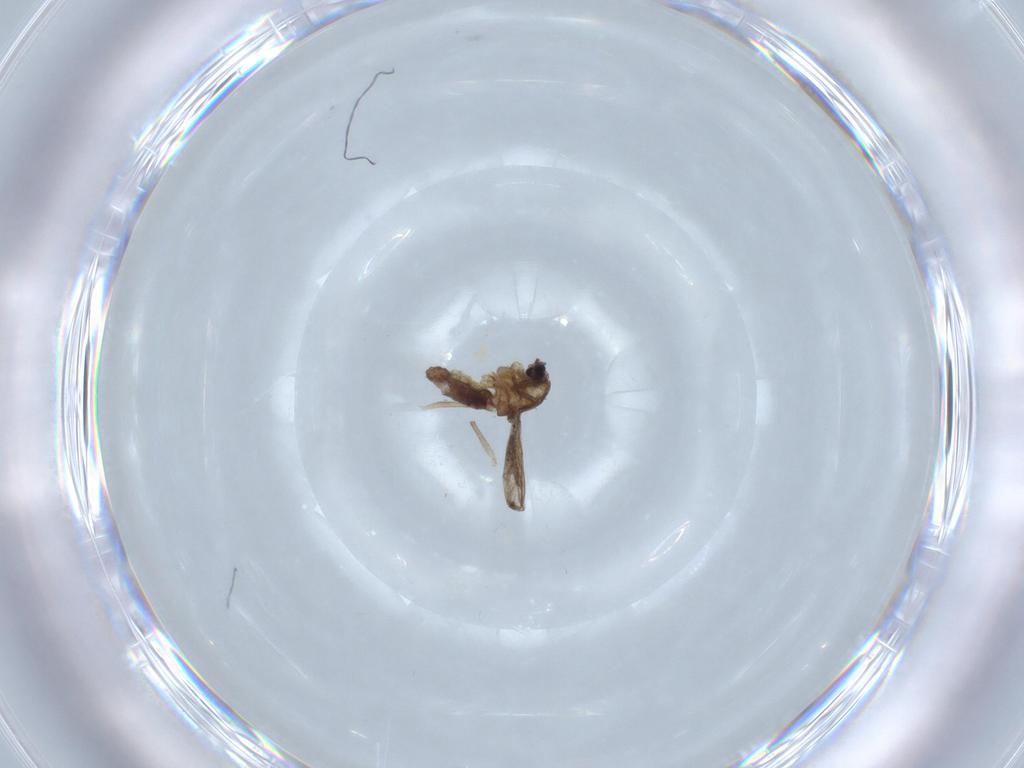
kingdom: Animalia
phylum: Arthropoda
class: Insecta
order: Diptera
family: Chironomidae
